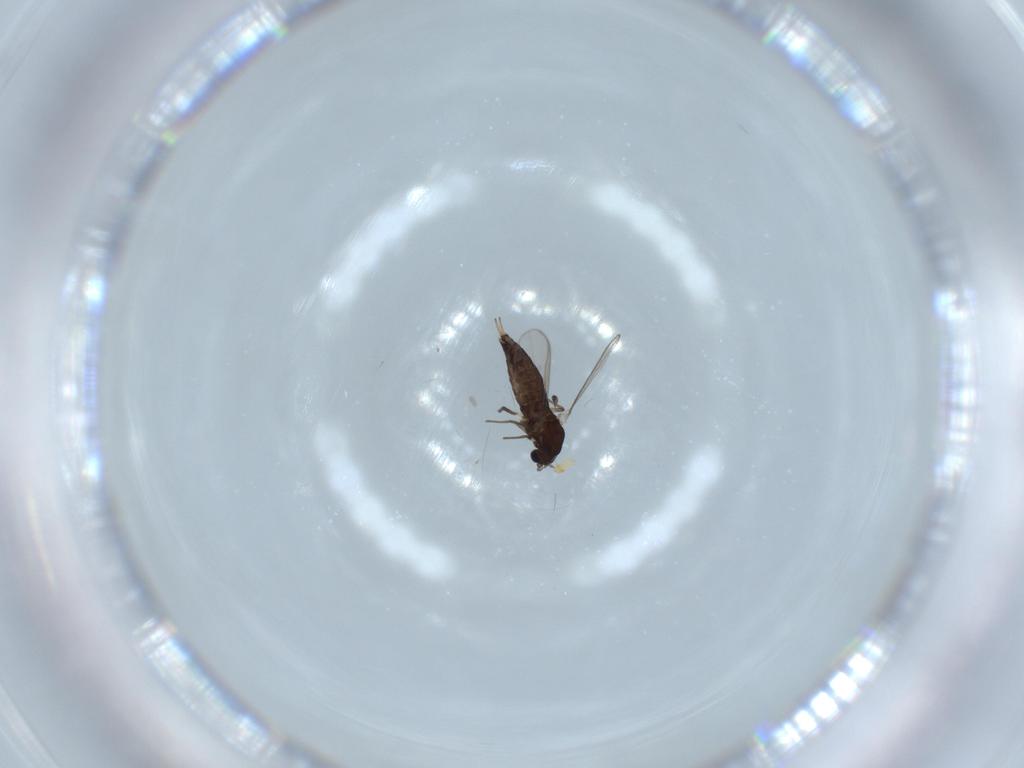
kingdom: Animalia
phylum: Arthropoda
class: Insecta
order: Diptera
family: Chironomidae
